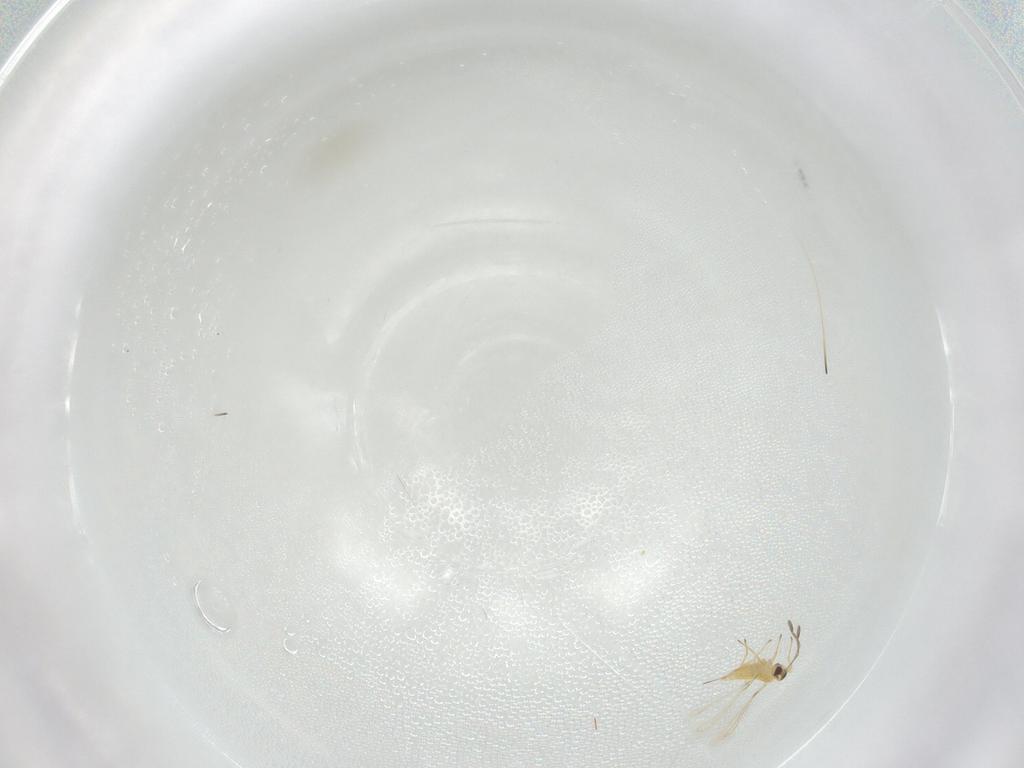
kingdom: Animalia
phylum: Arthropoda
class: Insecta
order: Hymenoptera
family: Mymaridae
